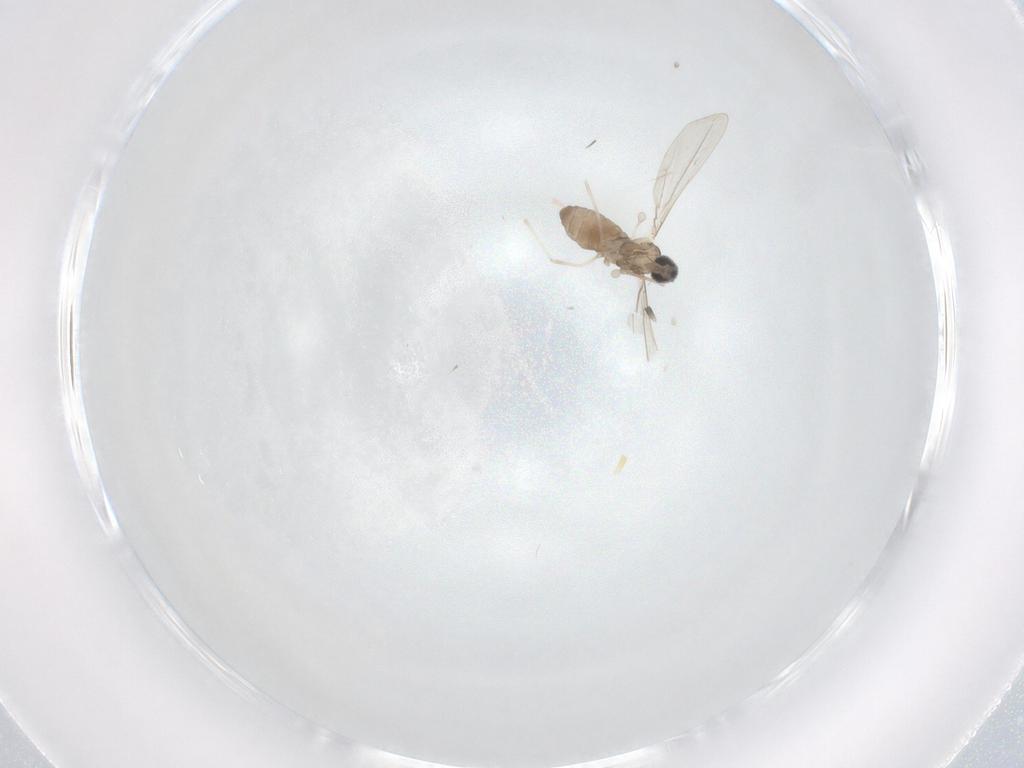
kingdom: Animalia
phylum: Arthropoda
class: Insecta
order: Diptera
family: Cecidomyiidae
